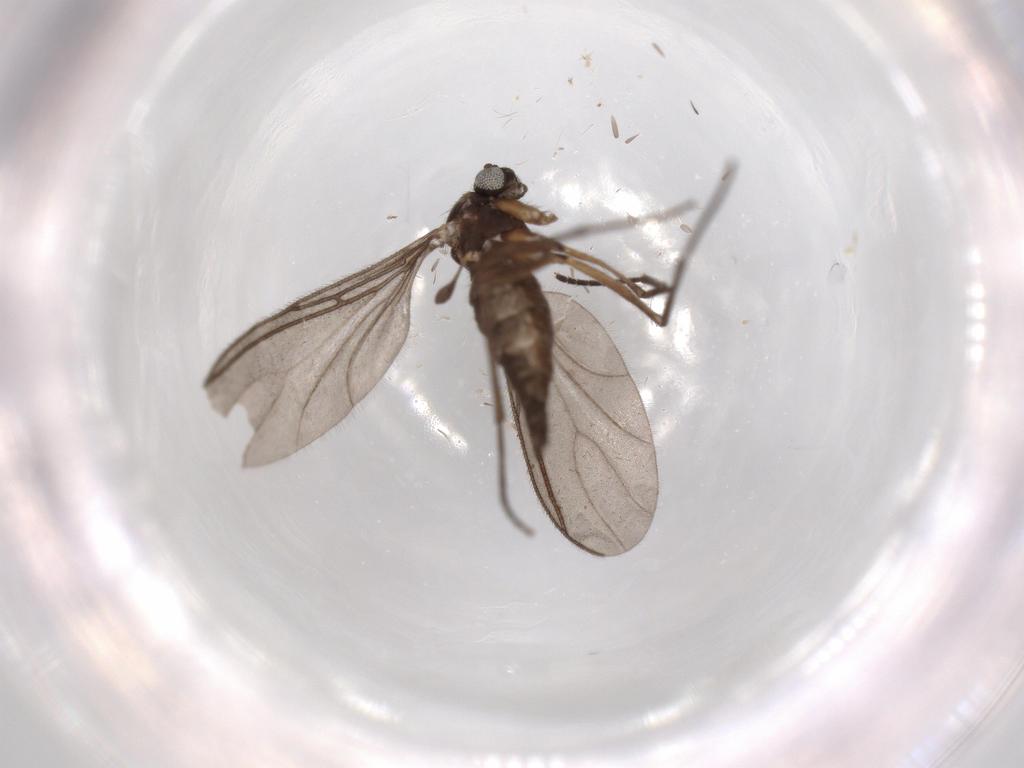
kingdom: Animalia
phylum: Arthropoda
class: Insecta
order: Diptera
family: Sciaridae
